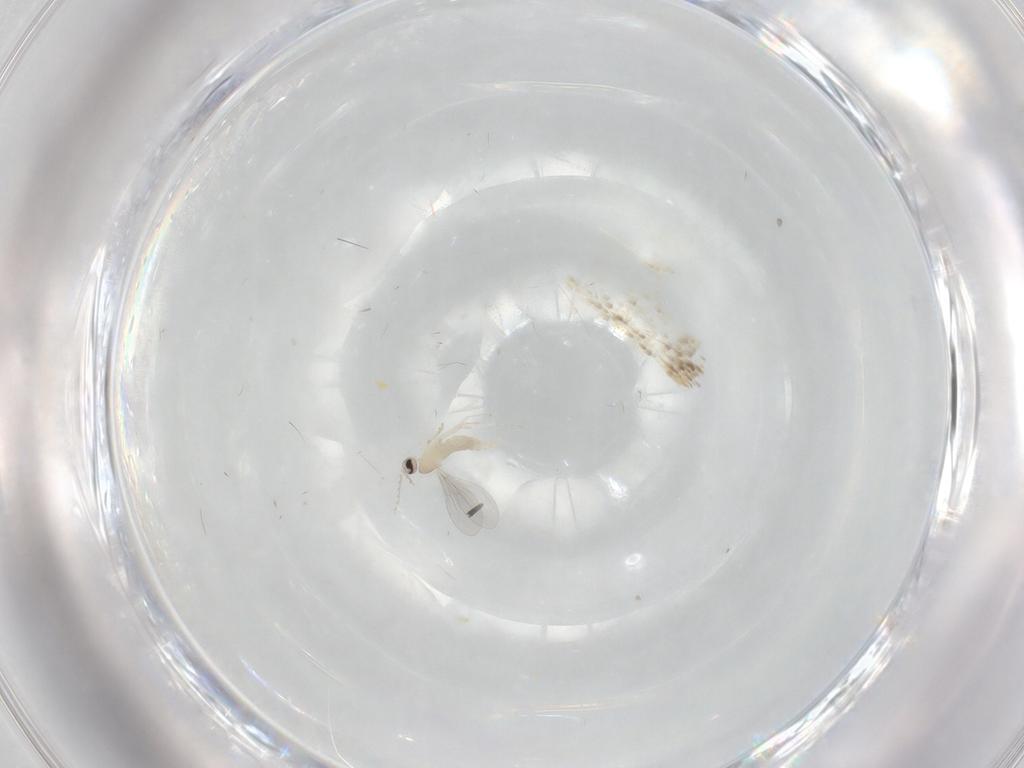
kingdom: Animalia
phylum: Arthropoda
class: Insecta
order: Diptera
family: Cecidomyiidae
